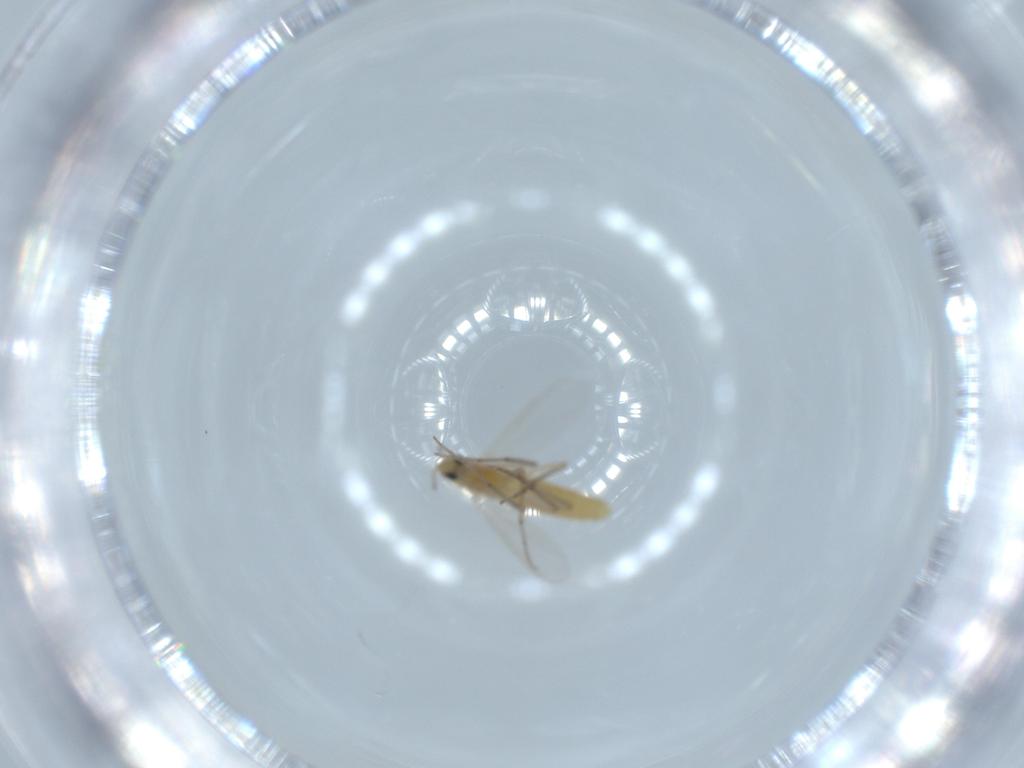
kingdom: Animalia
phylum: Arthropoda
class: Insecta
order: Diptera
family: Chironomidae
